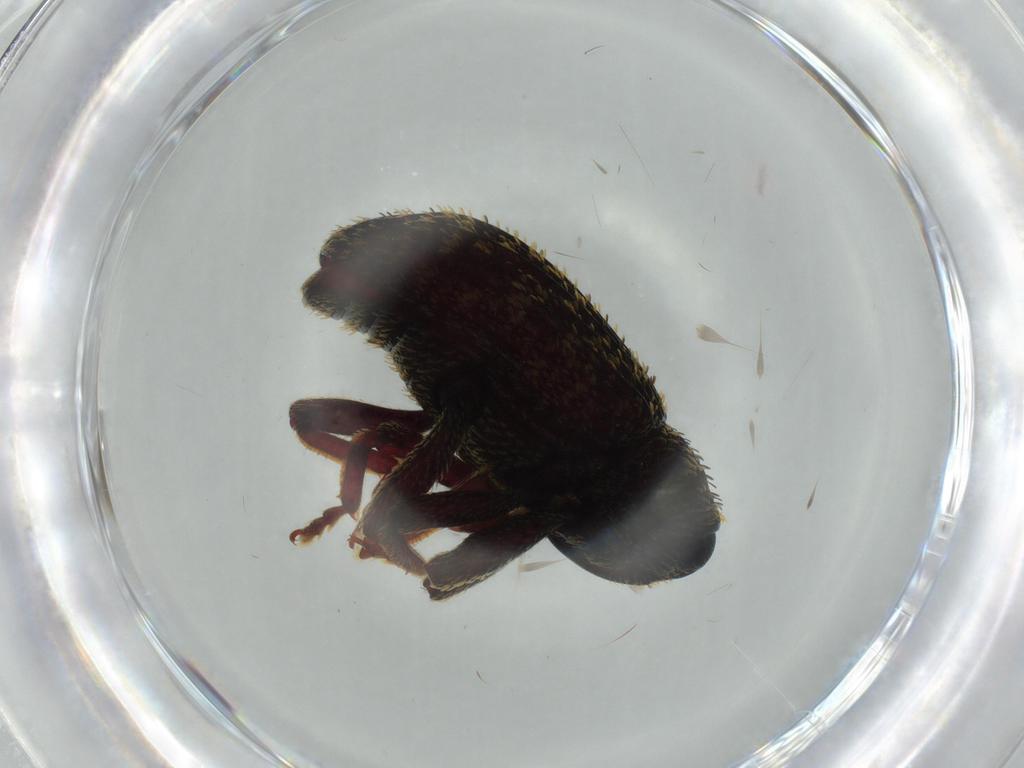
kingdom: Animalia
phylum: Arthropoda
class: Insecta
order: Coleoptera
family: Curculionidae
